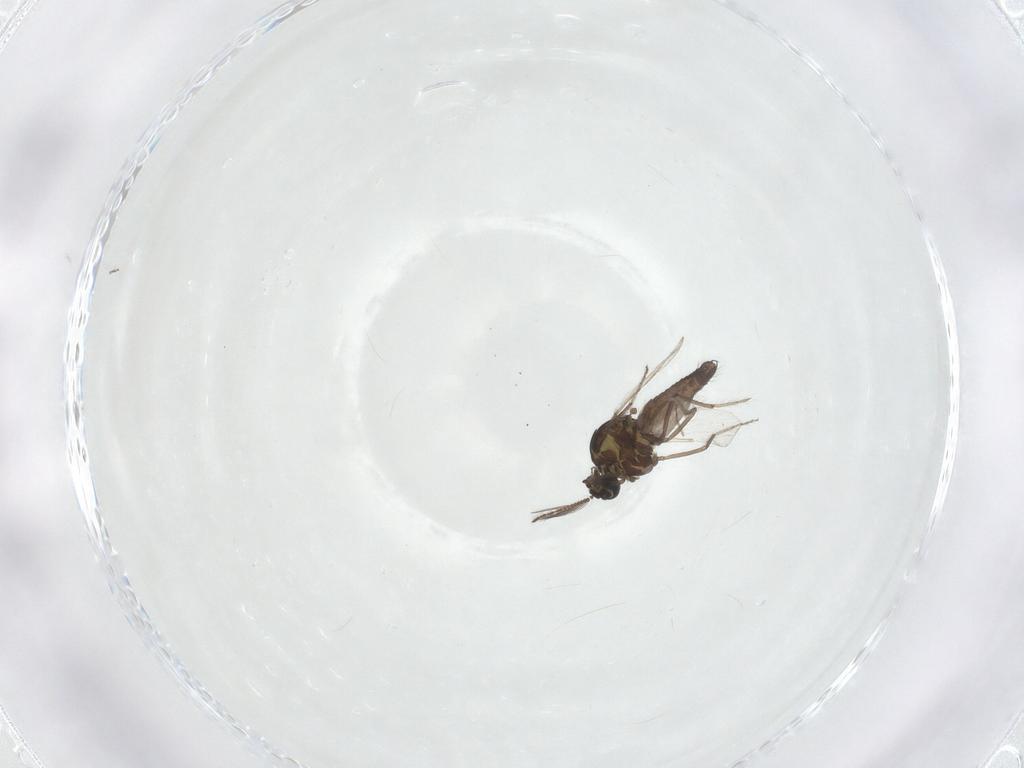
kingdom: Animalia
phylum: Arthropoda
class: Insecta
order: Diptera
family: Ceratopogonidae
